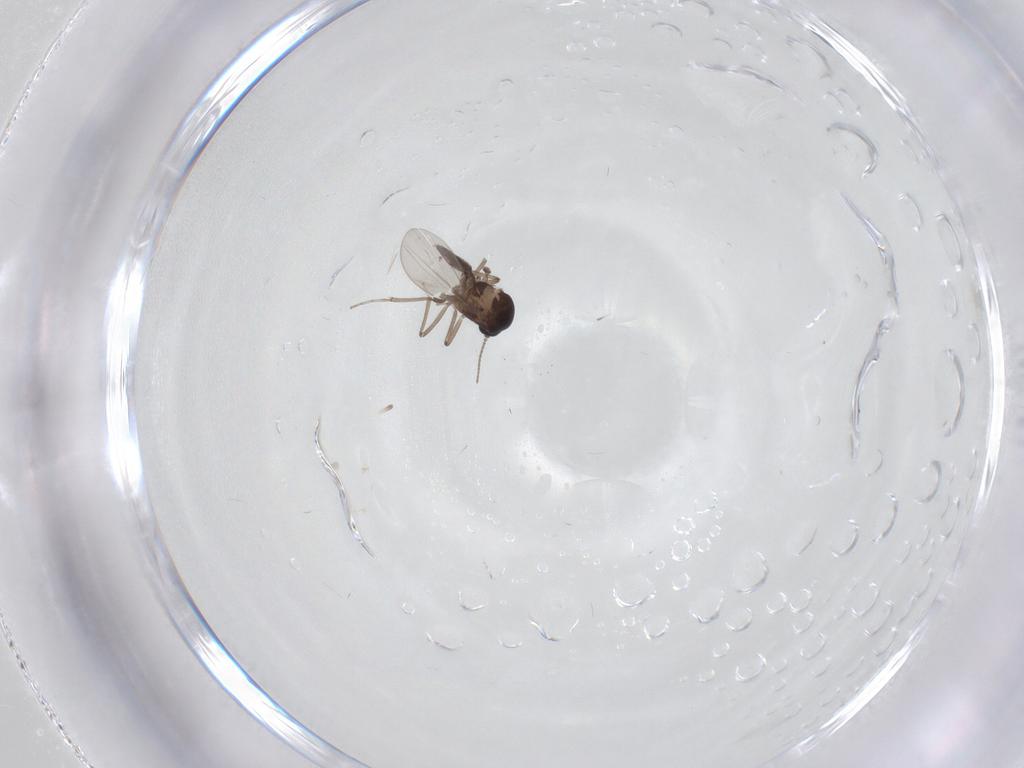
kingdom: Animalia
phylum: Arthropoda
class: Insecta
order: Diptera
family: Ceratopogonidae
